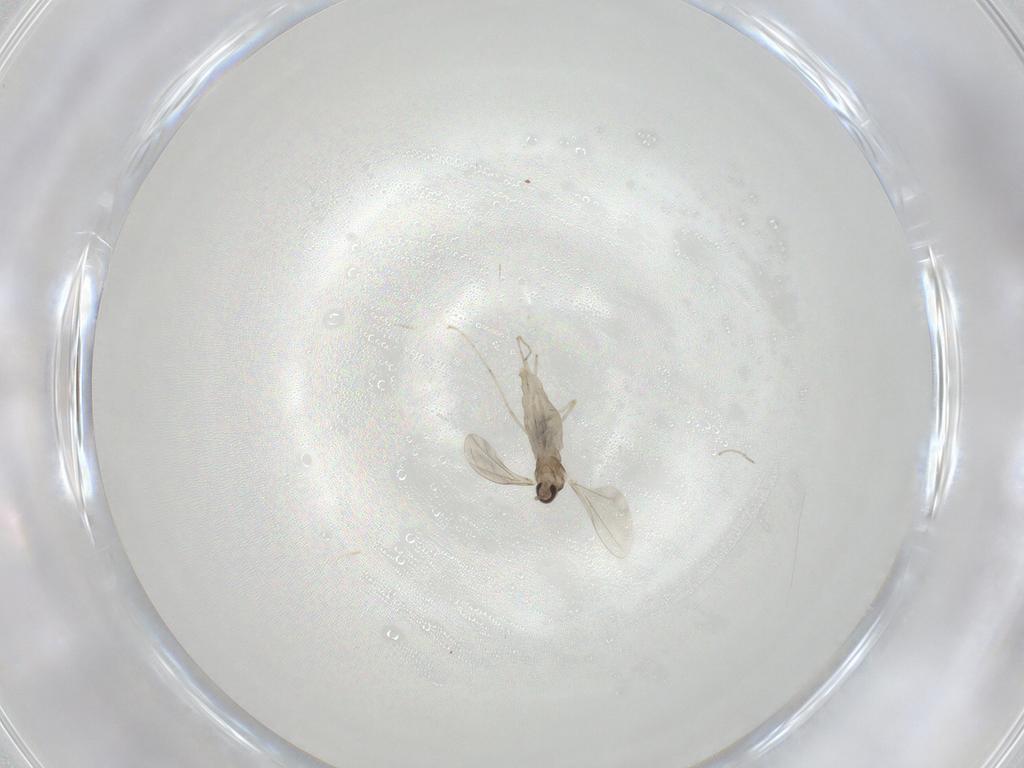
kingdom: Animalia
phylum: Arthropoda
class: Insecta
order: Diptera
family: Cecidomyiidae
